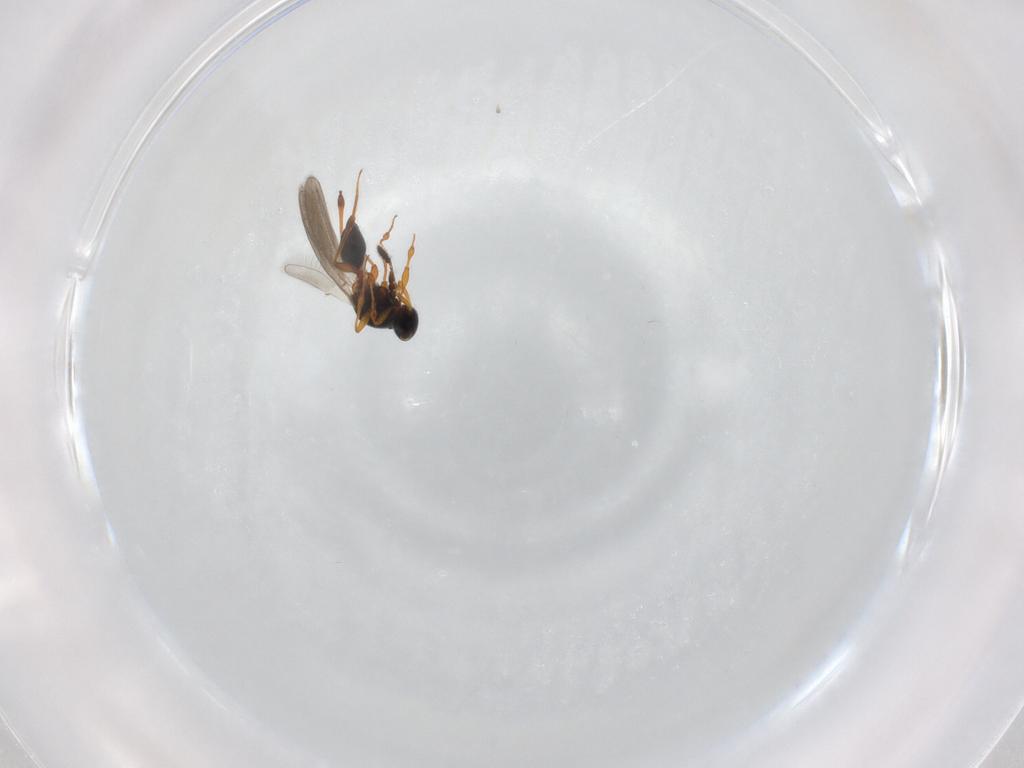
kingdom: Animalia
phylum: Arthropoda
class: Insecta
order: Hymenoptera
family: Platygastridae
